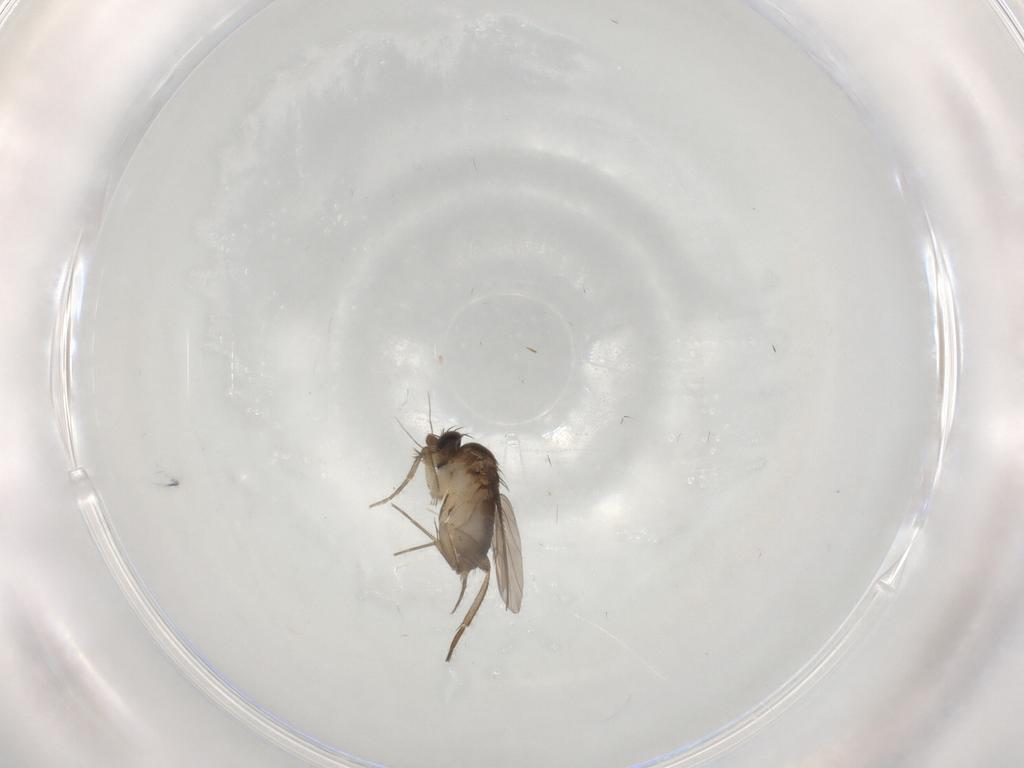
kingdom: Animalia
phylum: Arthropoda
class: Insecta
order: Diptera
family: Phoridae
